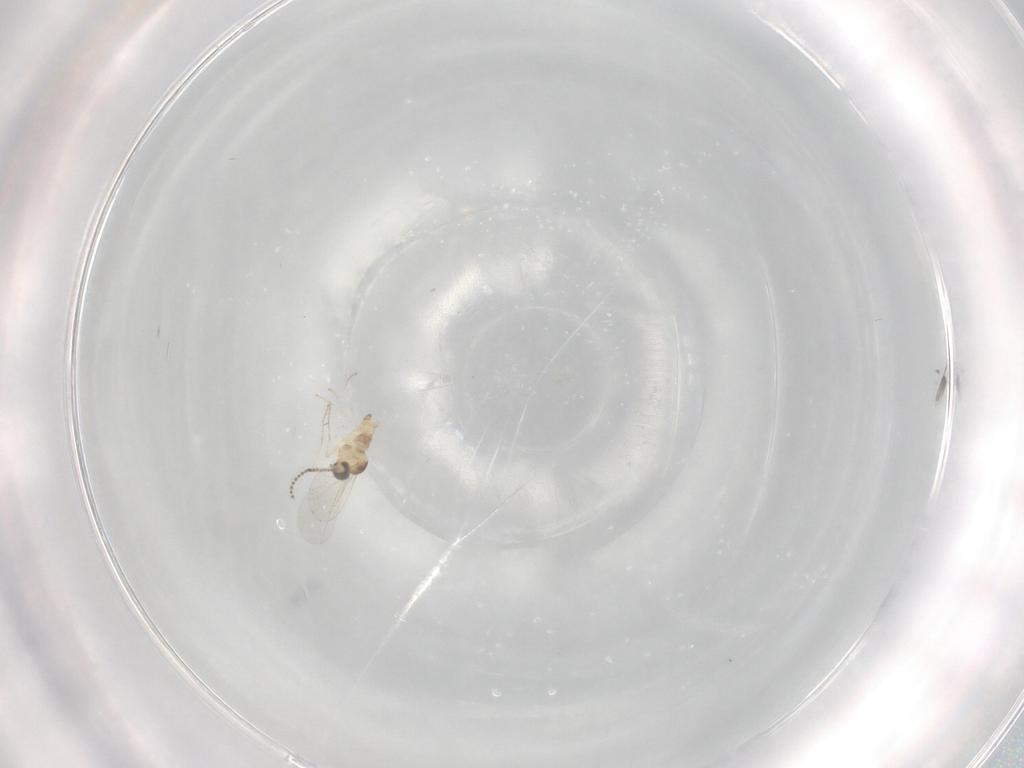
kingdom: Animalia
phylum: Arthropoda
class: Insecta
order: Diptera
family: Cecidomyiidae
